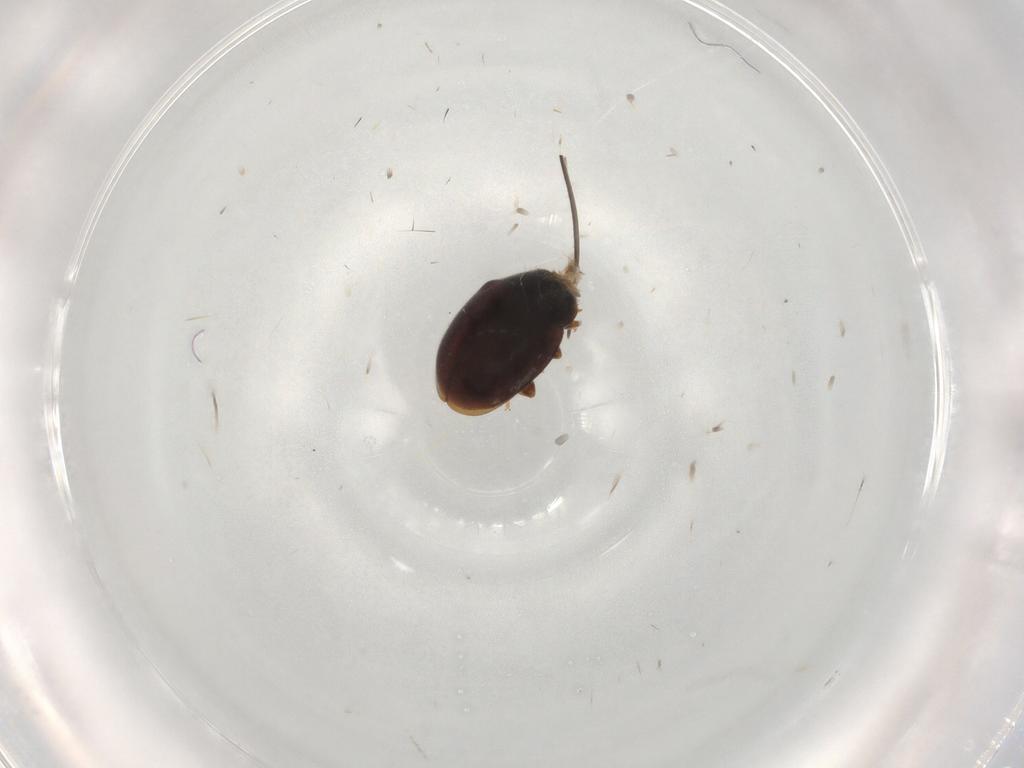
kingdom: Animalia
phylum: Arthropoda
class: Insecta
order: Coleoptera
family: Coccinellidae
